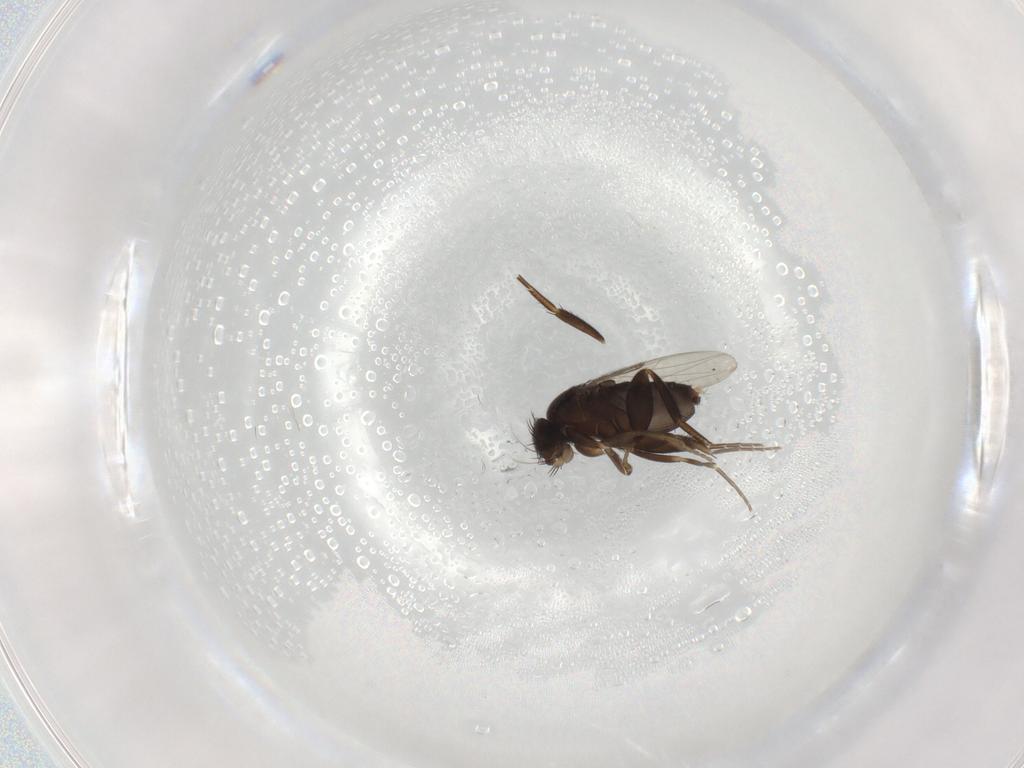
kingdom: Animalia
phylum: Arthropoda
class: Insecta
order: Diptera
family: Phoridae
